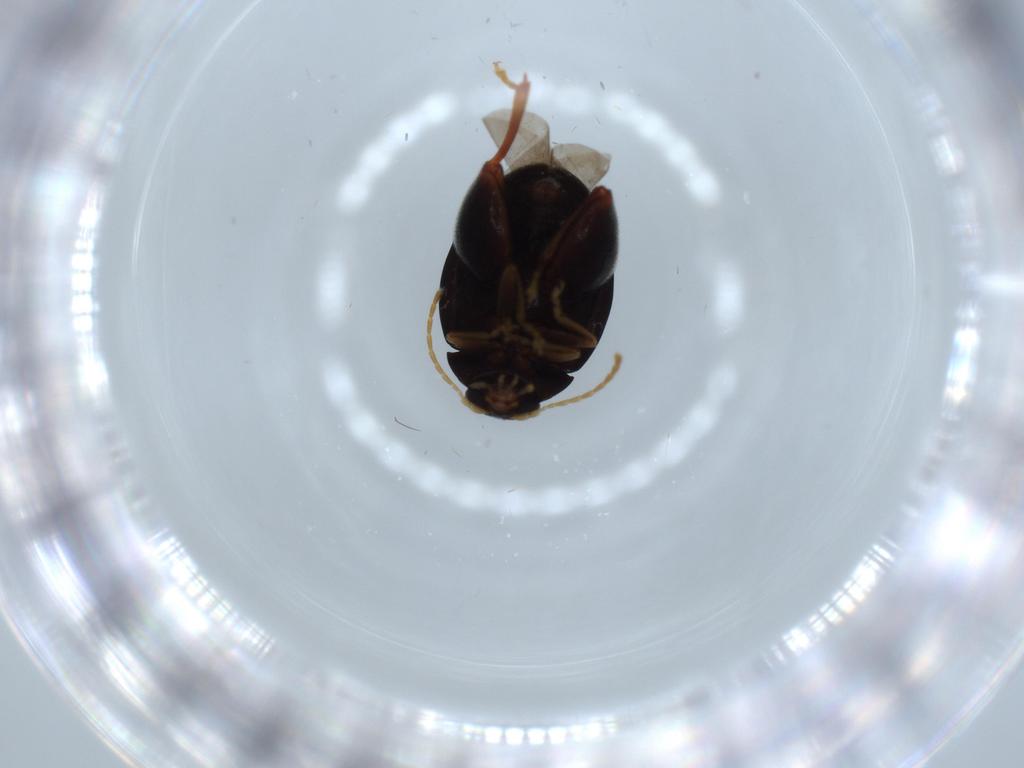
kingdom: Animalia
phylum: Arthropoda
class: Insecta
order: Coleoptera
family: Chrysomelidae
